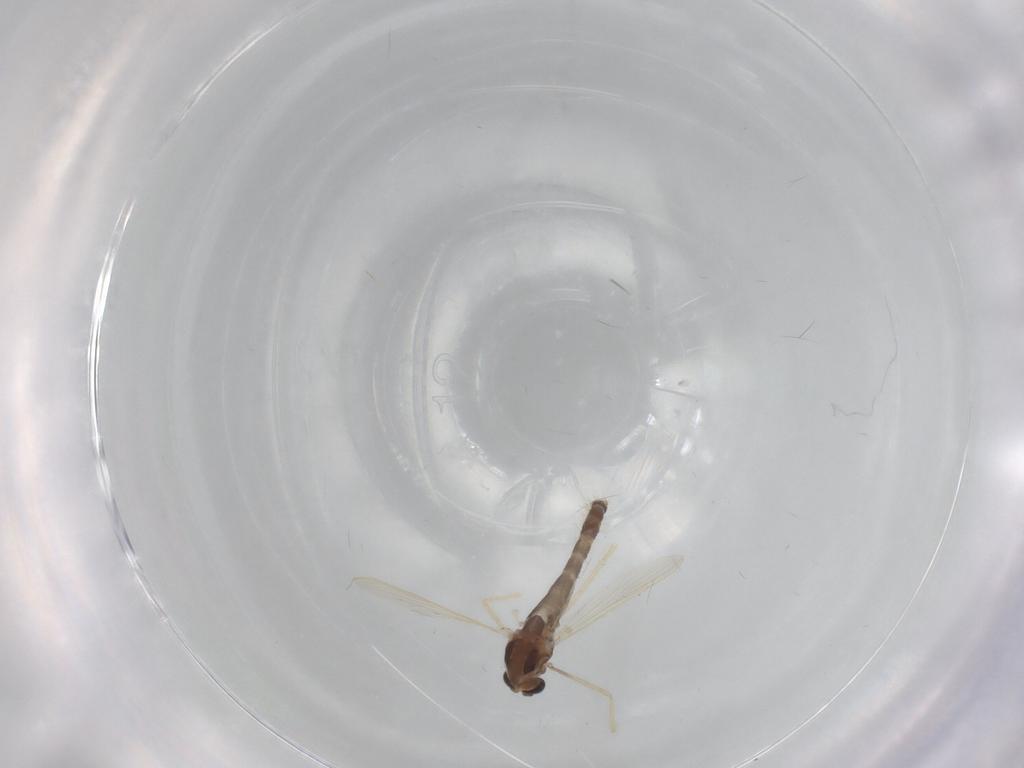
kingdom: Animalia
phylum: Arthropoda
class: Insecta
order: Diptera
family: Chironomidae
